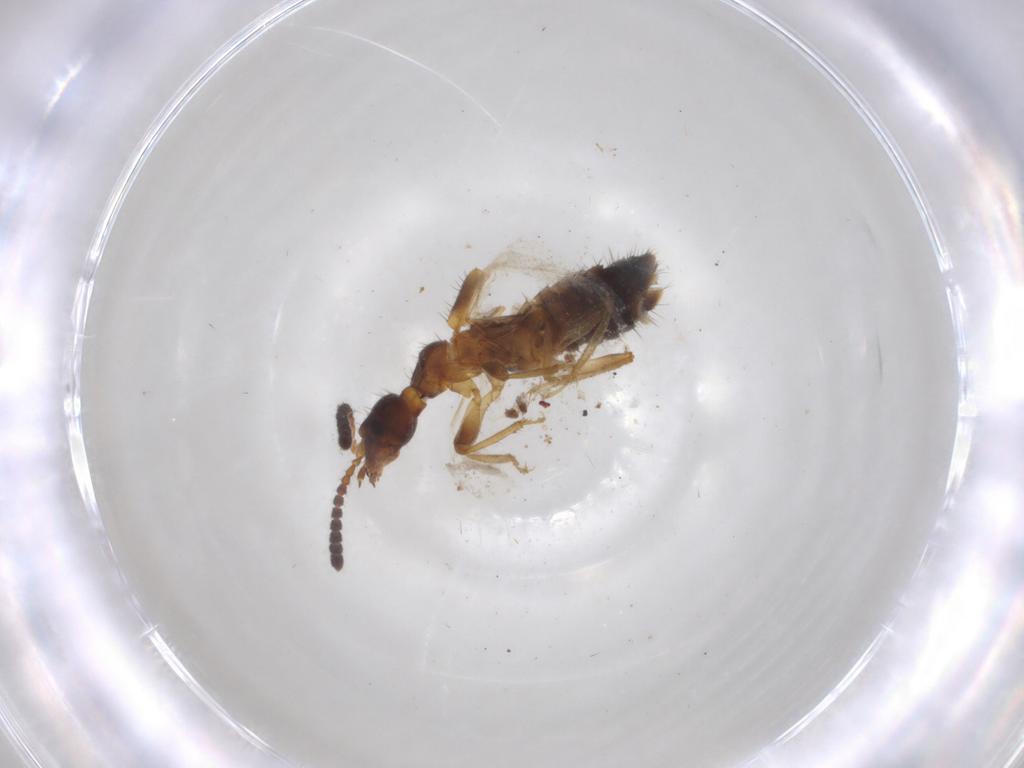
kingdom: Animalia
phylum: Arthropoda
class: Insecta
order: Coleoptera
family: Staphylinidae
